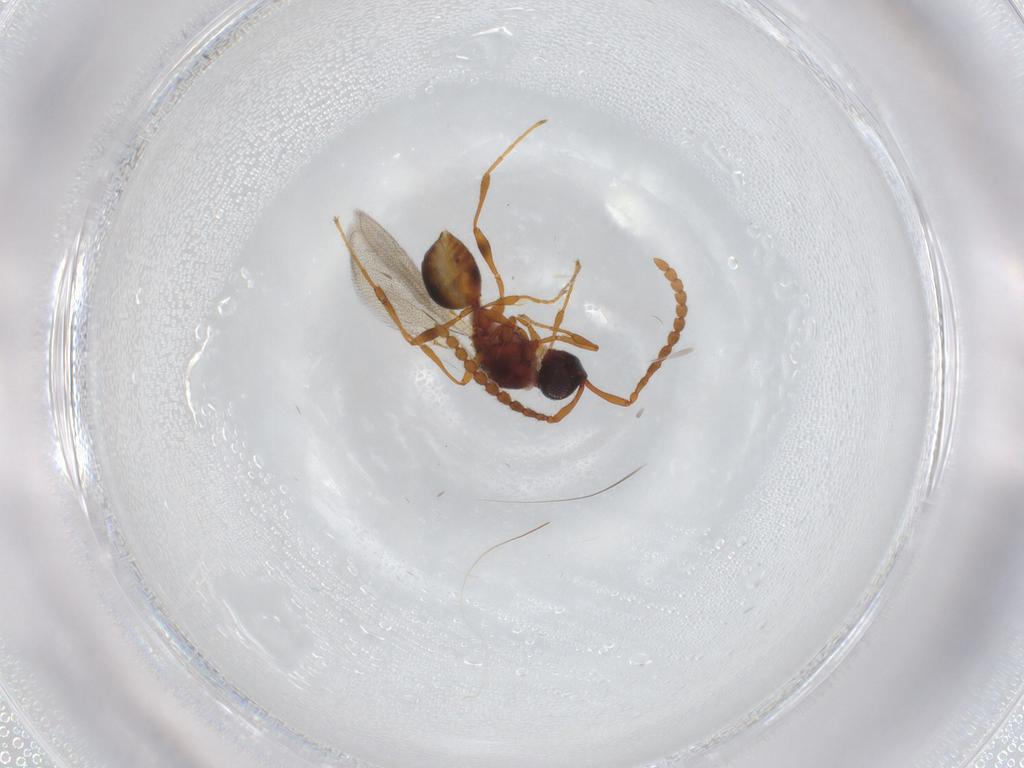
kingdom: Animalia
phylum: Arthropoda
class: Insecta
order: Hymenoptera
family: Diapriidae
